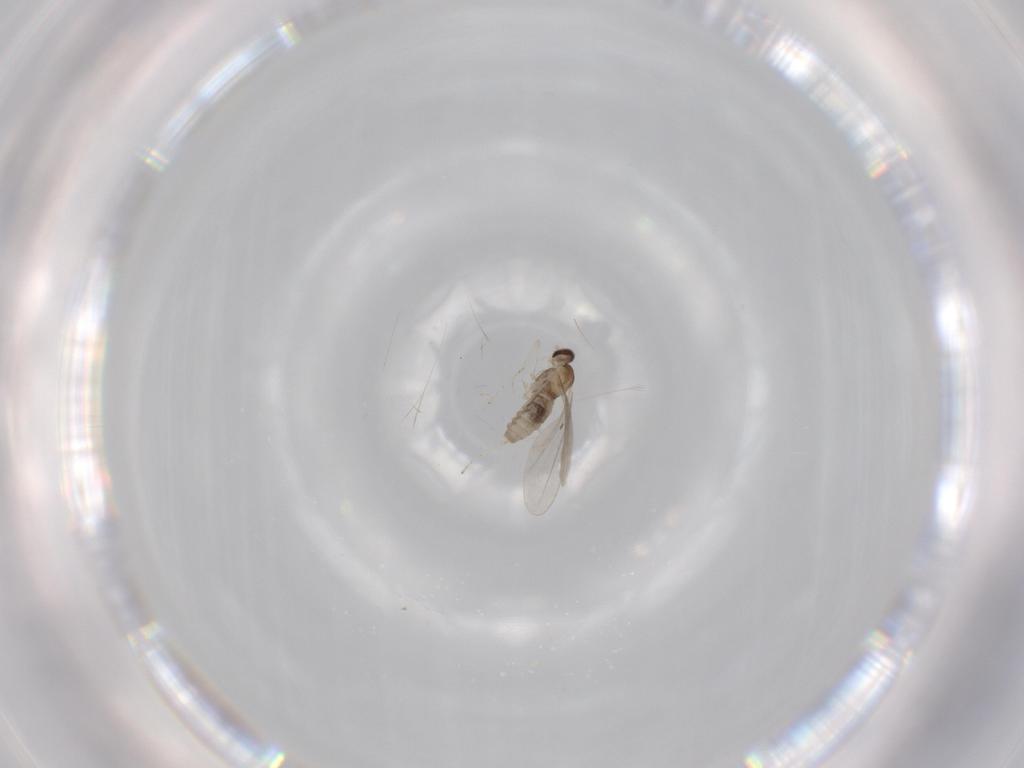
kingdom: Animalia
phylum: Arthropoda
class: Insecta
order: Diptera
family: Cecidomyiidae
